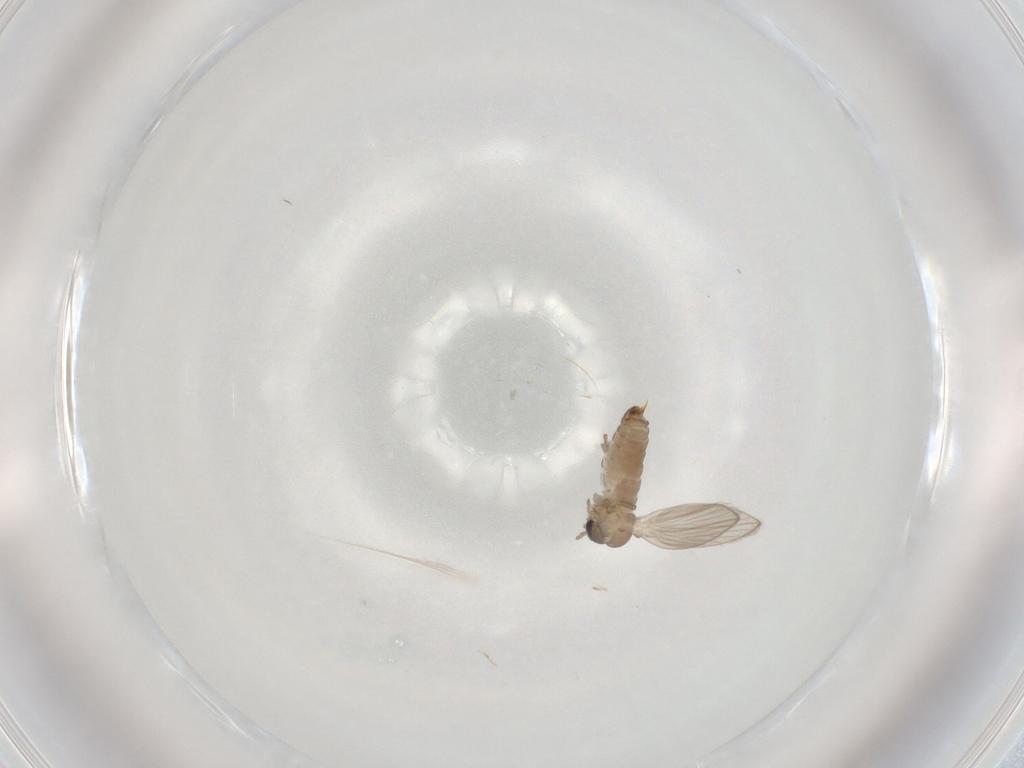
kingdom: Animalia
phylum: Arthropoda
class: Insecta
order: Diptera
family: Psychodidae
